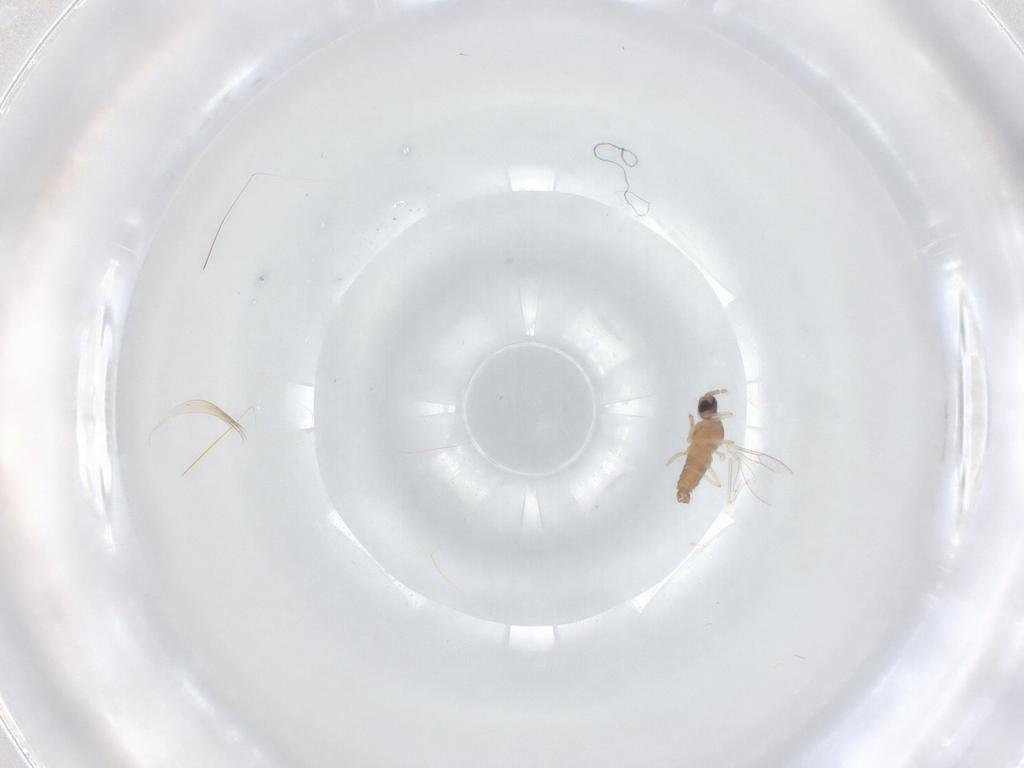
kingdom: Animalia
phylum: Arthropoda
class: Insecta
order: Diptera
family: Cecidomyiidae
